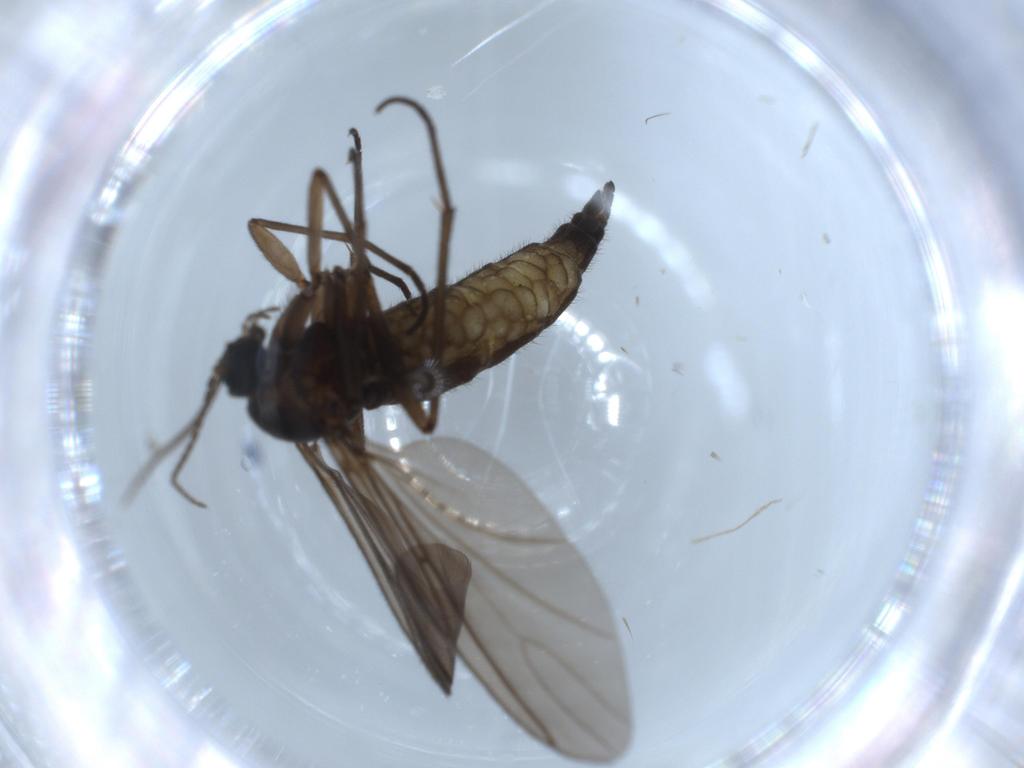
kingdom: Animalia
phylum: Arthropoda
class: Insecta
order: Diptera
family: Sciaridae
